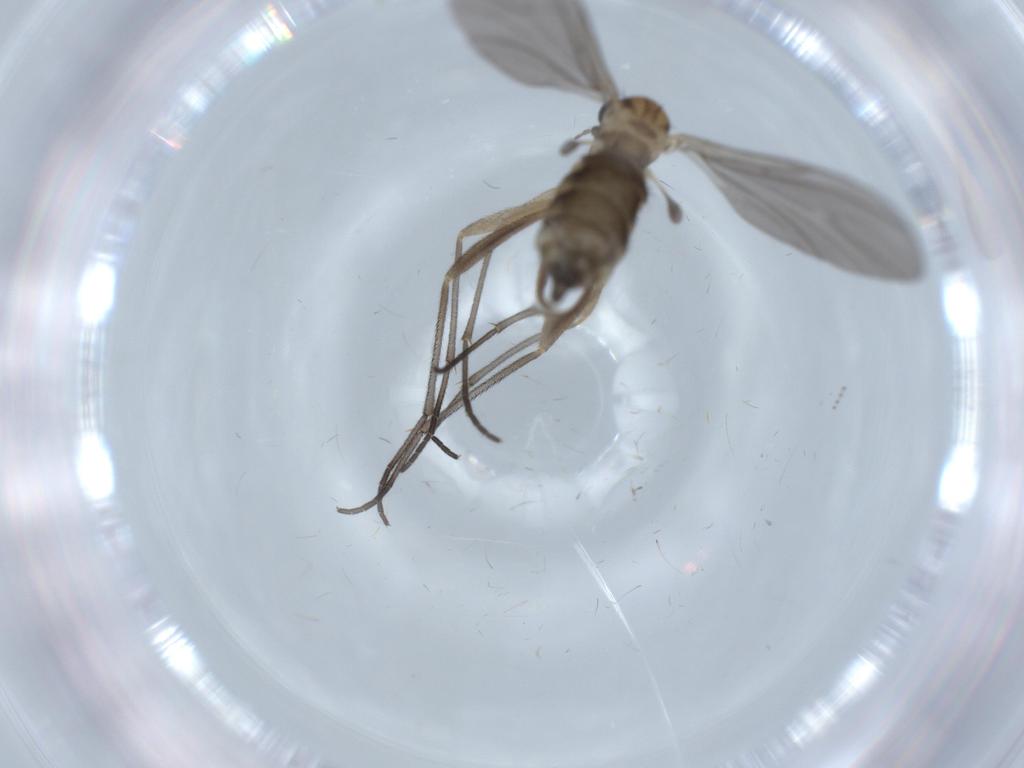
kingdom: Animalia
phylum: Arthropoda
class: Insecta
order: Diptera
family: Sciaridae
